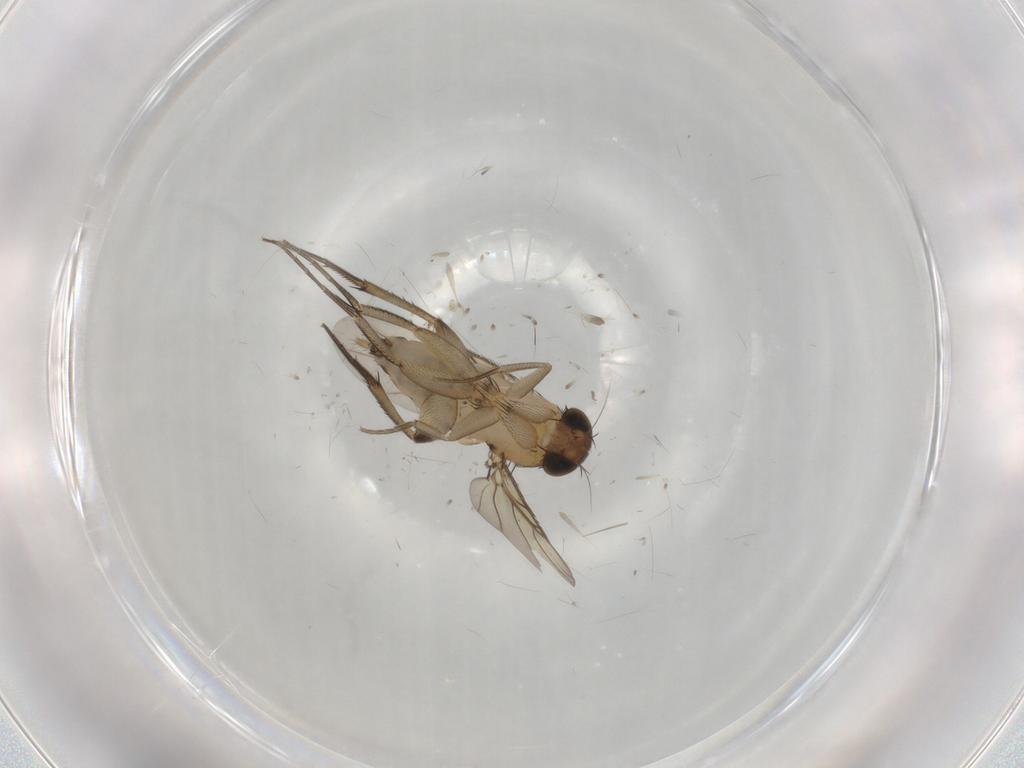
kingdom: Animalia
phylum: Arthropoda
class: Insecta
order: Diptera
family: Phoridae
